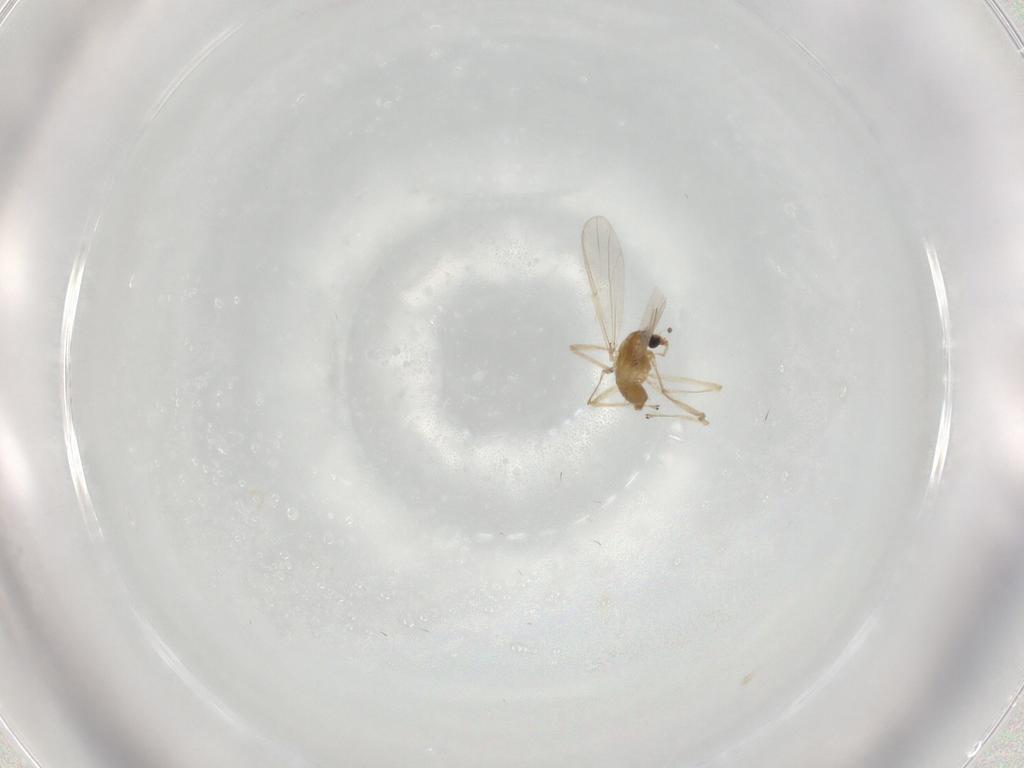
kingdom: Animalia
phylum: Arthropoda
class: Insecta
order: Diptera
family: Chironomidae
